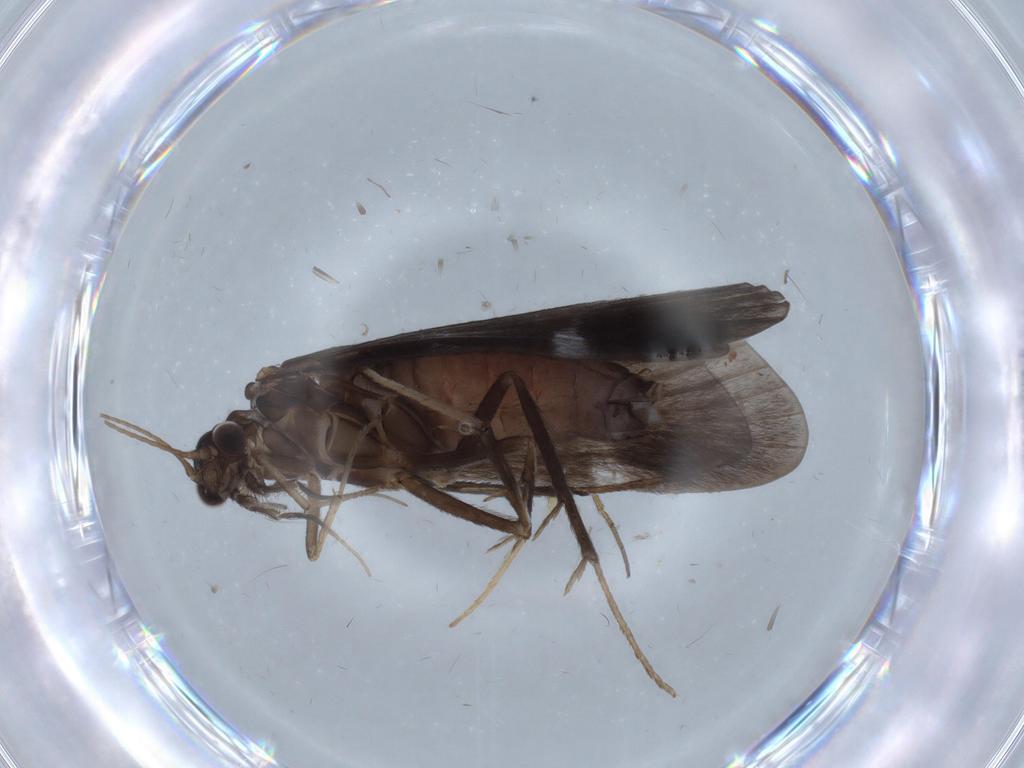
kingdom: Animalia
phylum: Arthropoda
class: Insecta
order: Trichoptera
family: Hydropsychidae
